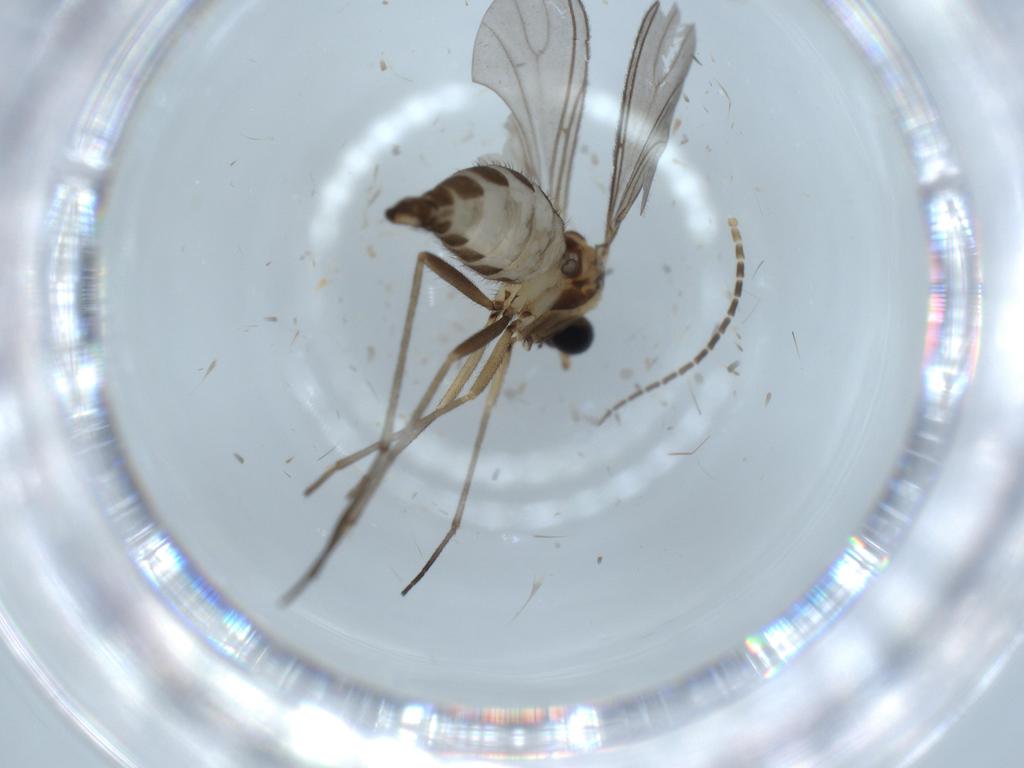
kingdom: Animalia
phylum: Arthropoda
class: Insecta
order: Diptera
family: Sciaridae
